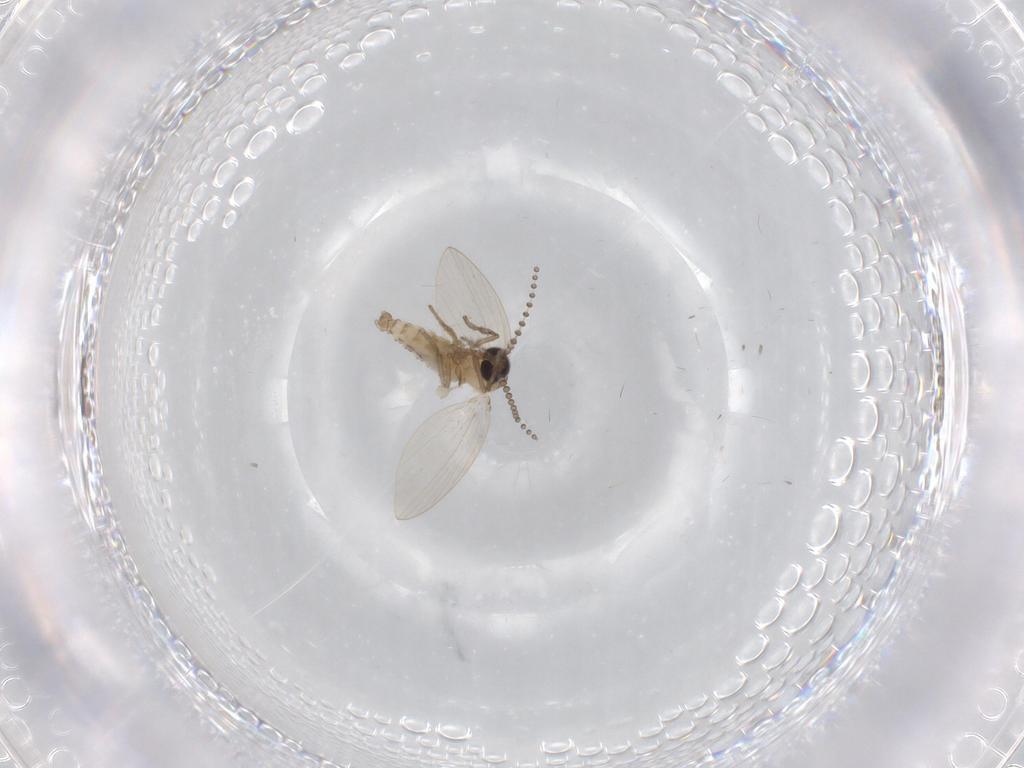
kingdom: Animalia
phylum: Arthropoda
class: Insecta
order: Diptera
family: Psychodidae
